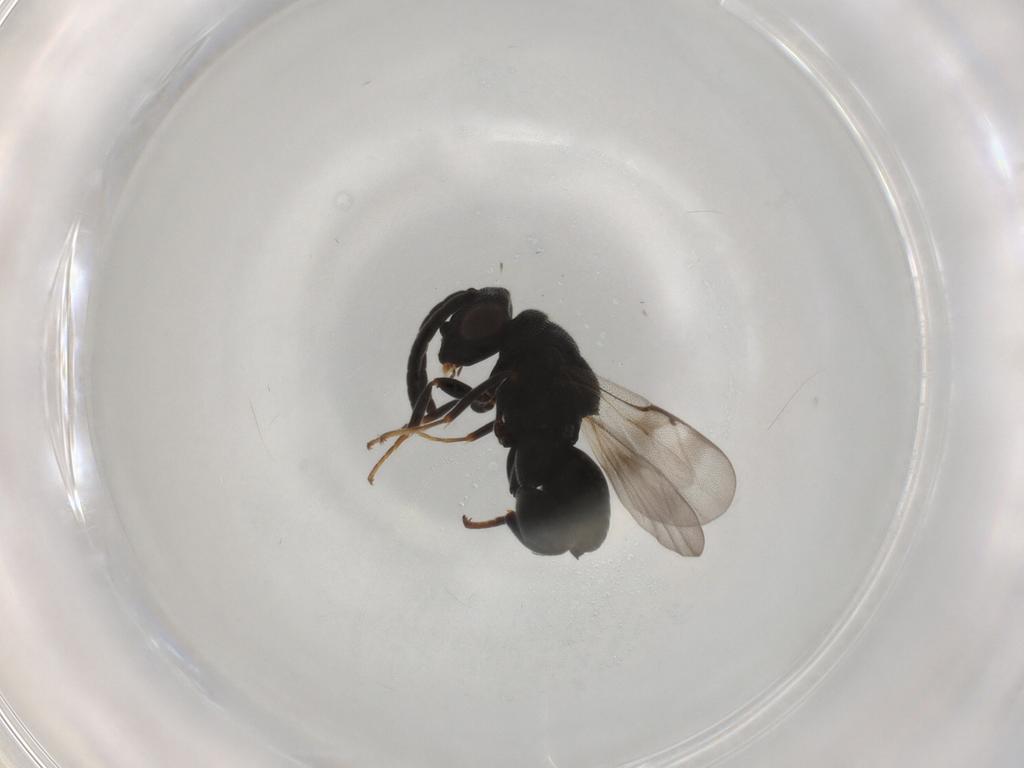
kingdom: Animalia
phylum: Arthropoda
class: Insecta
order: Hymenoptera
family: Chalcididae
